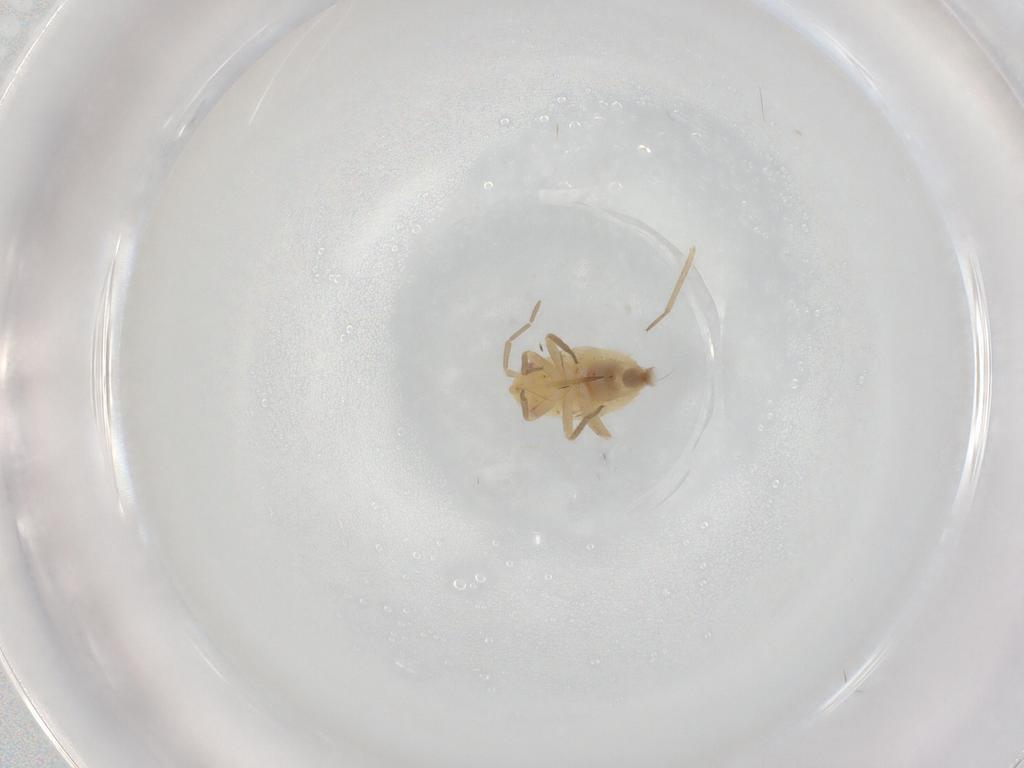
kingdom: Animalia
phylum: Arthropoda
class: Insecta
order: Hemiptera
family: Miridae
